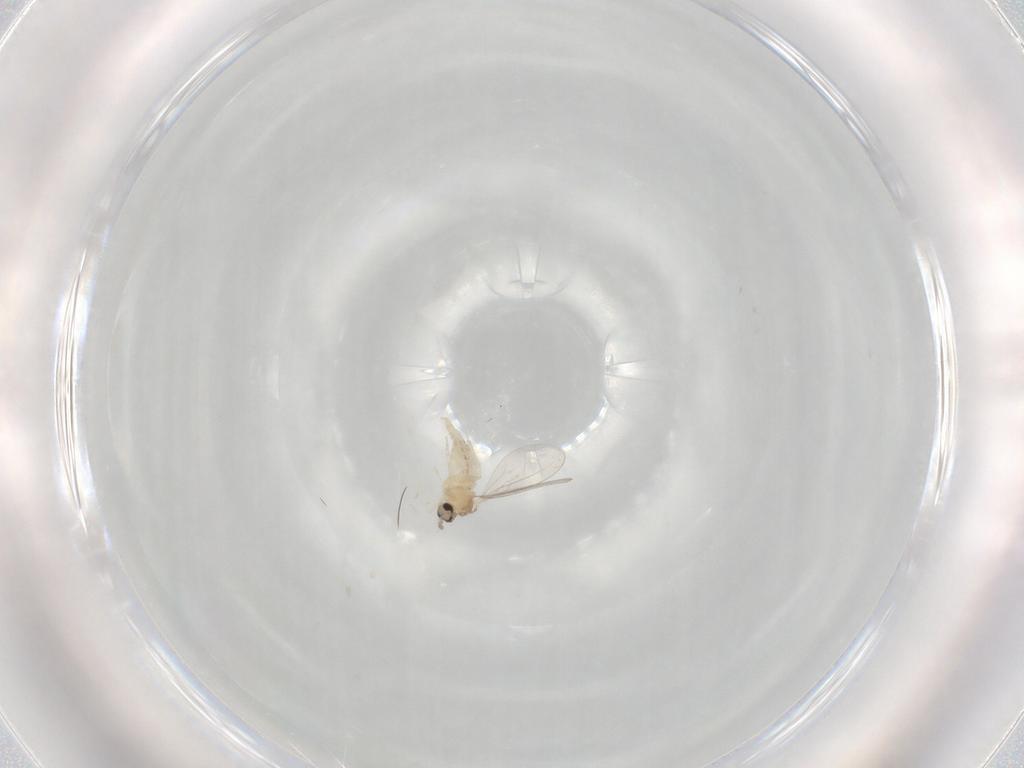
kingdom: Animalia
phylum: Arthropoda
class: Insecta
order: Diptera
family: Cecidomyiidae
